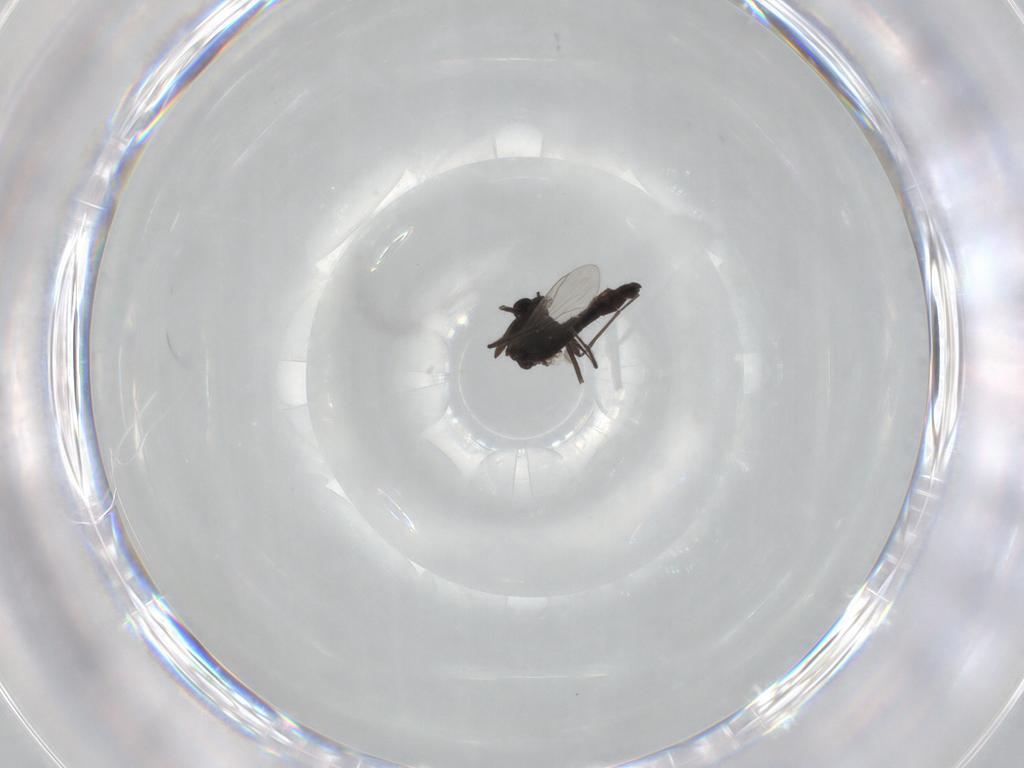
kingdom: Animalia
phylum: Arthropoda
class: Insecta
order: Diptera
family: Chironomidae
